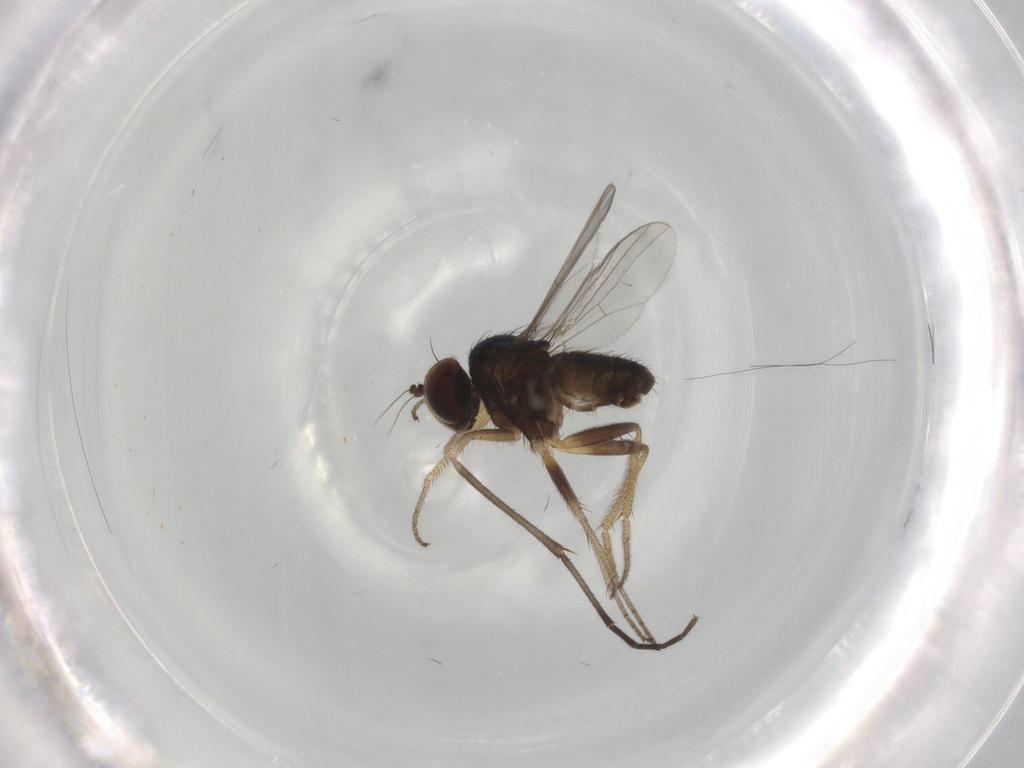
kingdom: Animalia
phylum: Arthropoda
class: Insecta
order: Diptera
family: Dolichopodidae
